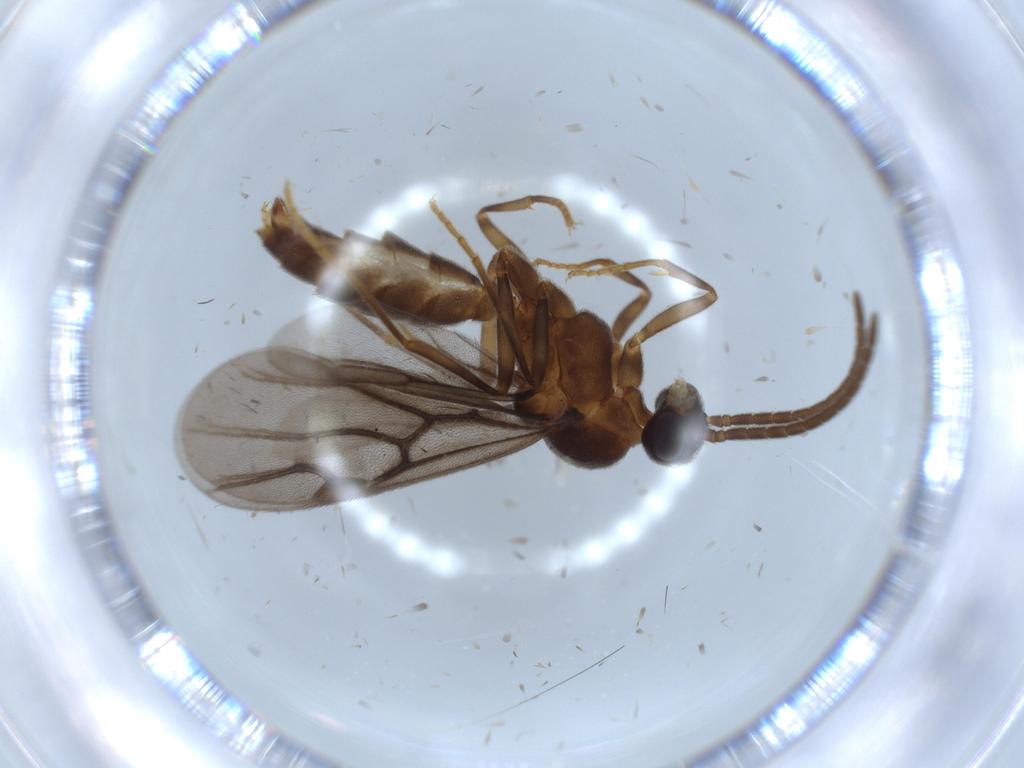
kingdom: Animalia
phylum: Arthropoda
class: Insecta
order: Hymenoptera
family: Formicidae
